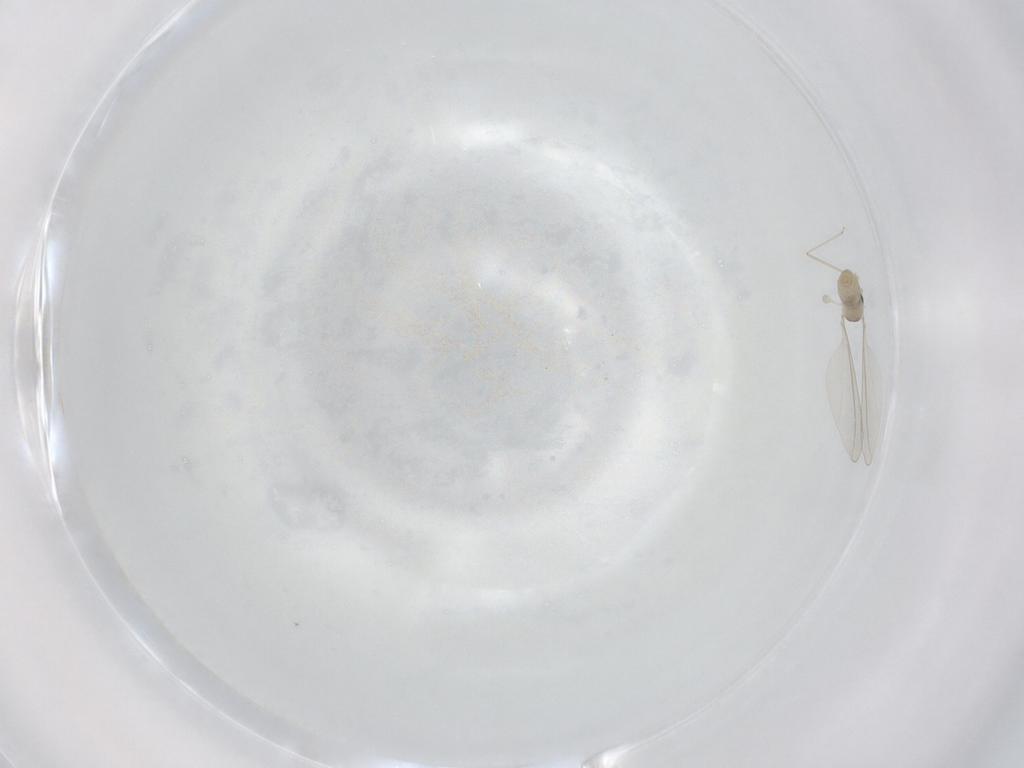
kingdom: Animalia
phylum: Arthropoda
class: Insecta
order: Diptera
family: Cecidomyiidae
